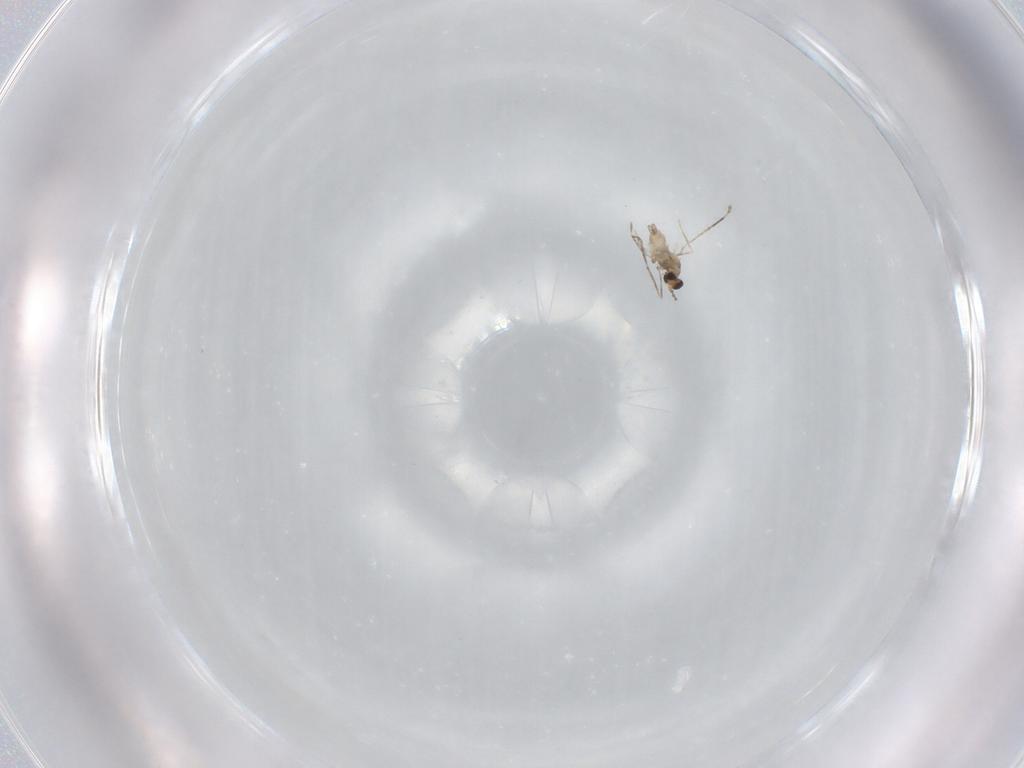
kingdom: Animalia
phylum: Arthropoda
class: Insecta
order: Diptera
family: Cecidomyiidae
